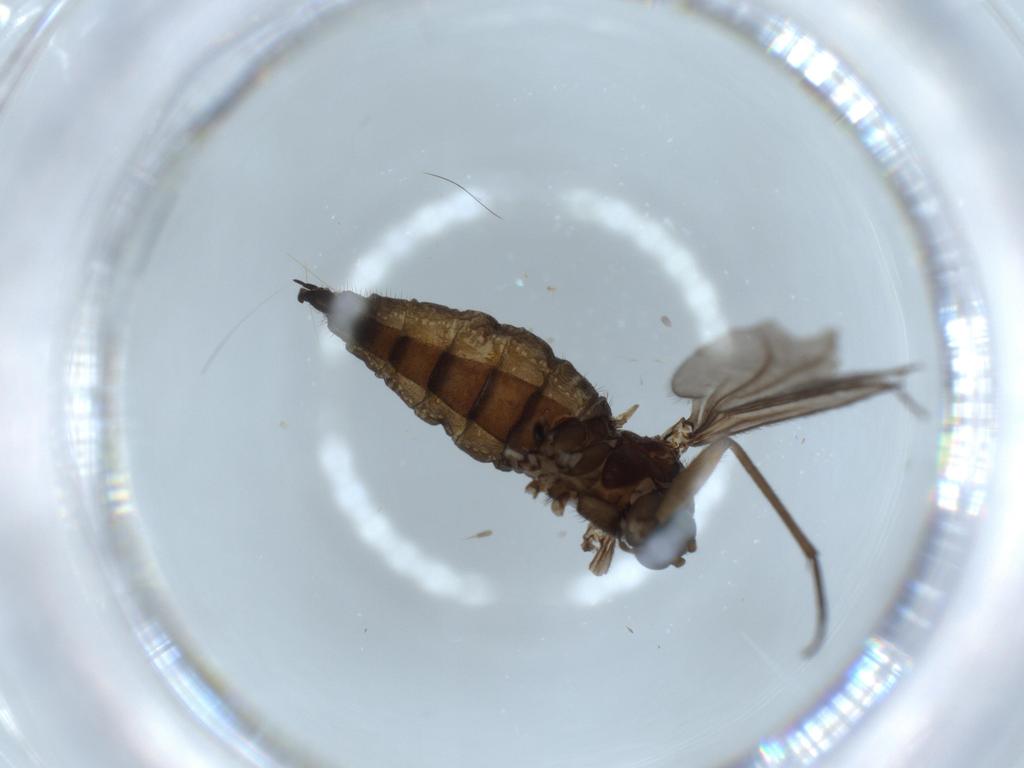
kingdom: Animalia
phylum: Arthropoda
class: Insecta
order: Diptera
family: Sciaridae
